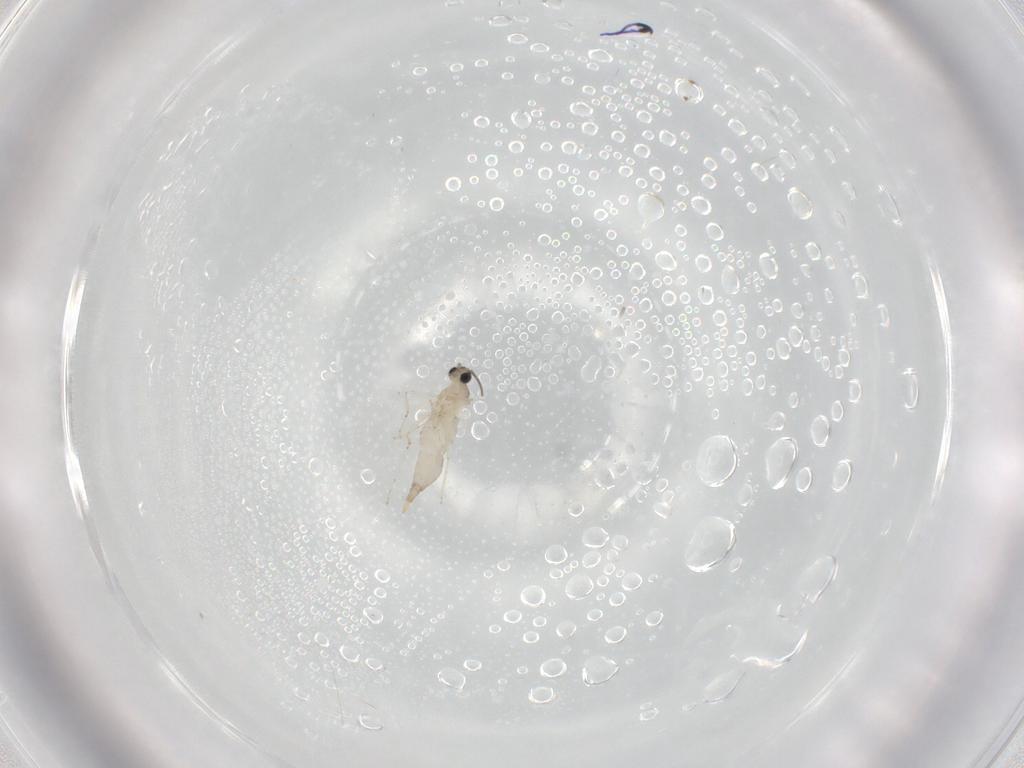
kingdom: Animalia
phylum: Arthropoda
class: Insecta
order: Diptera
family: Cecidomyiidae
